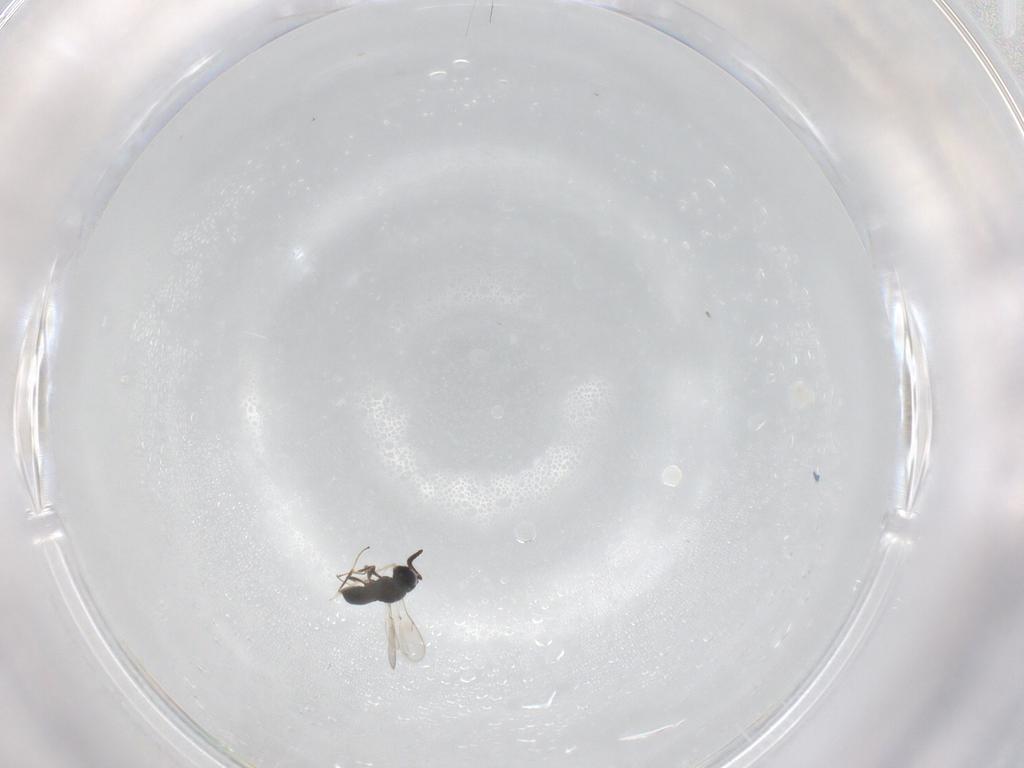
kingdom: Animalia
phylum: Arthropoda
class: Insecta
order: Hymenoptera
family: Scelionidae
